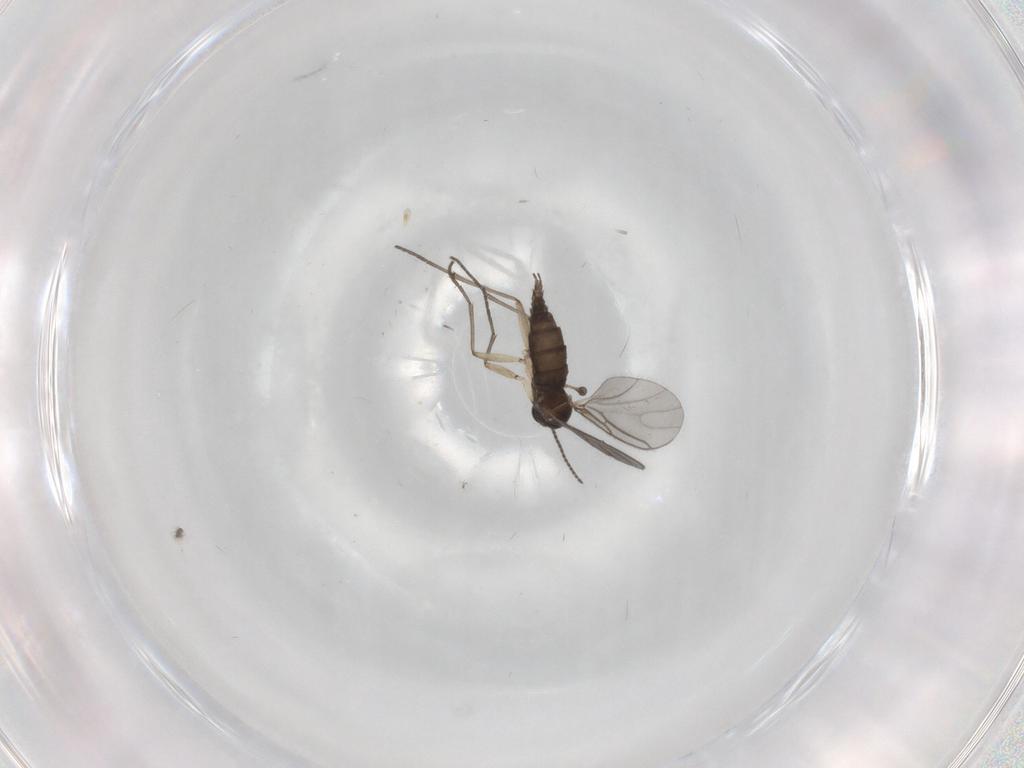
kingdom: Animalia
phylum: Arthropoda
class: Insecta
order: Diptera
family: Sciaridae
